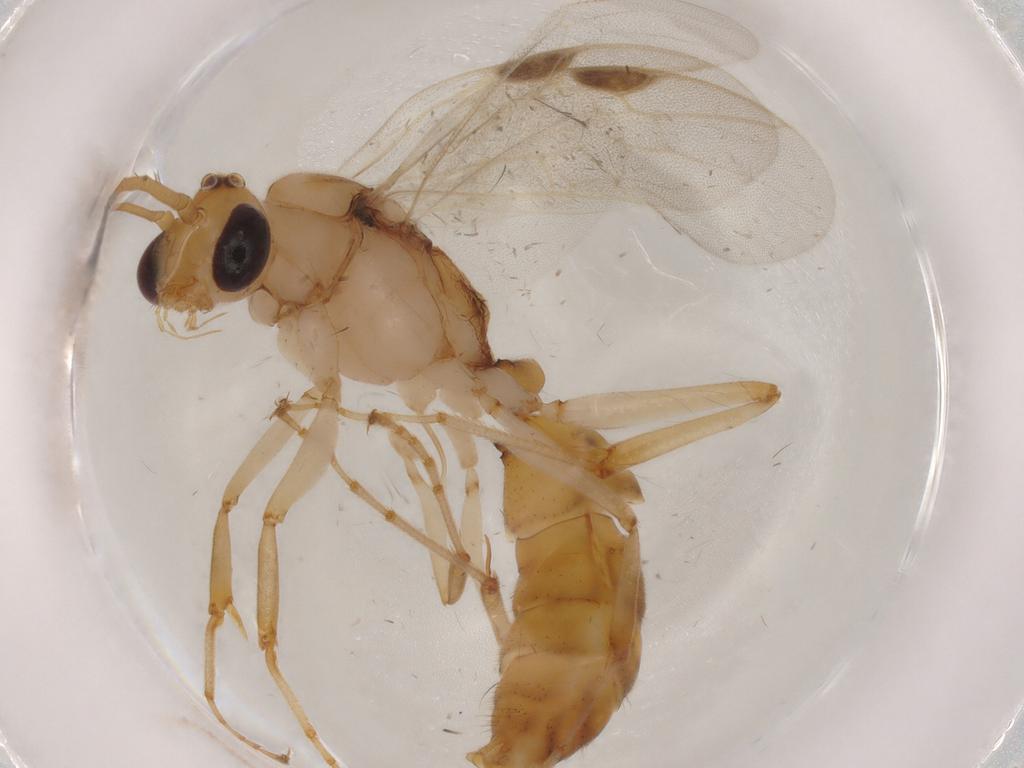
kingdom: Animalia
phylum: Arthropoda
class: Insecta
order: Hymenoptera
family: Formicidae
